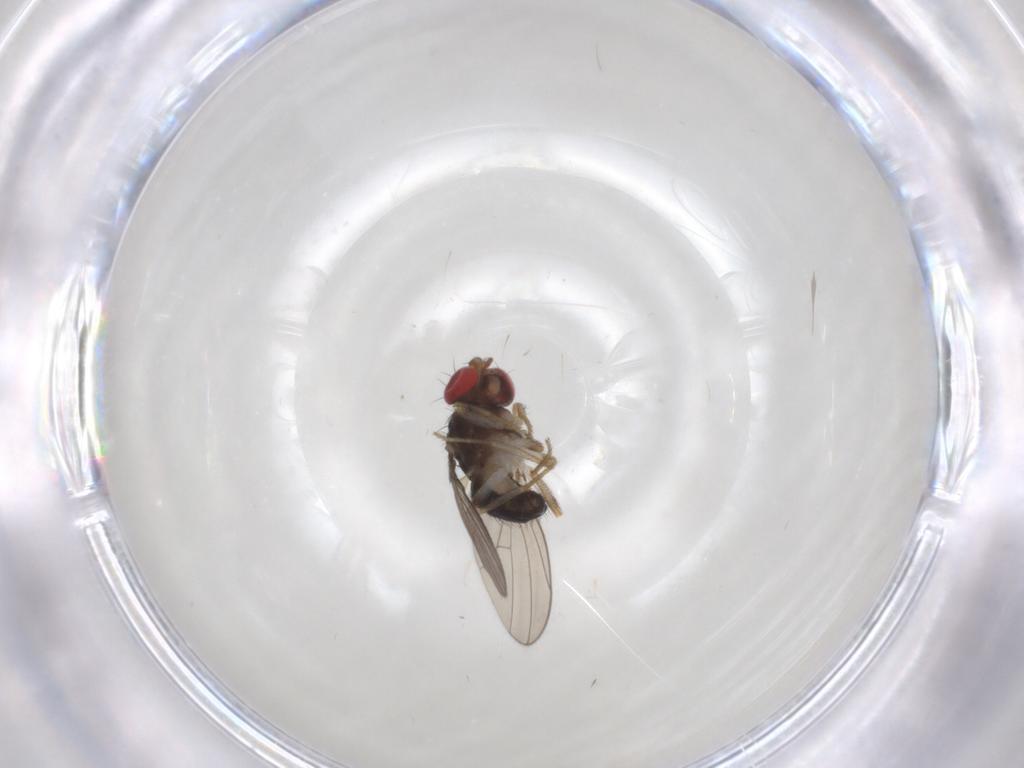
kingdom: Animalia
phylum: Arthropoda
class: Insecta
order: Diptera
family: Drosophilidae
